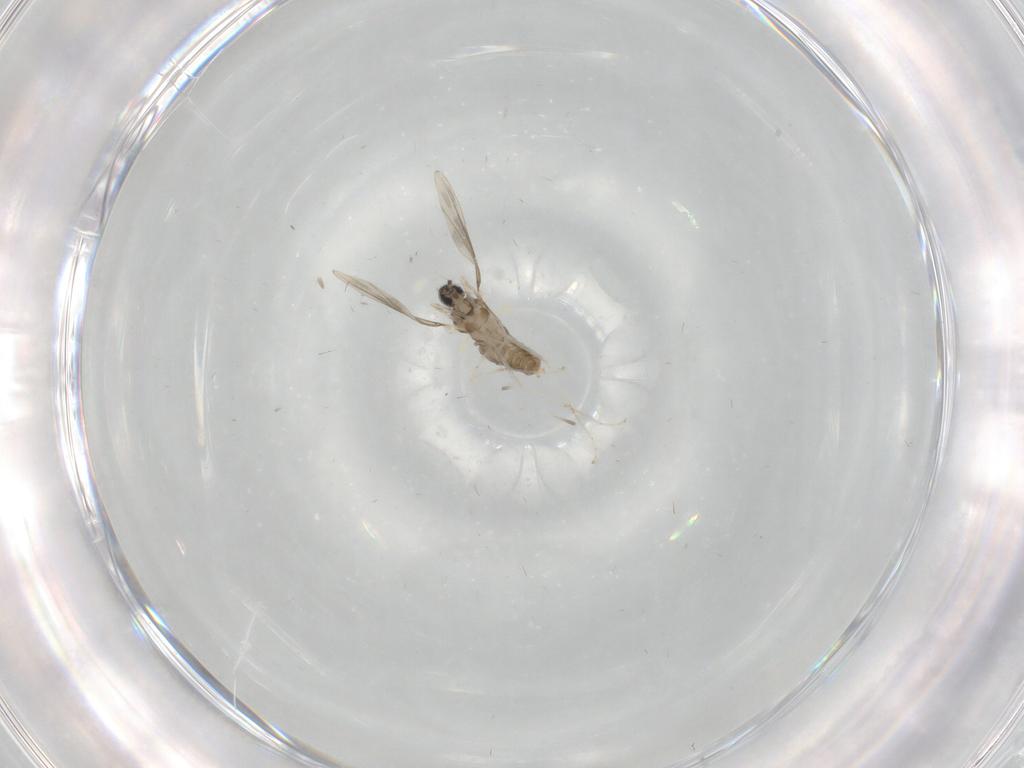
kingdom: Animalia
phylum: Arthropoda
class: Insecta
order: Diptera
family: Cecidomyiidae
